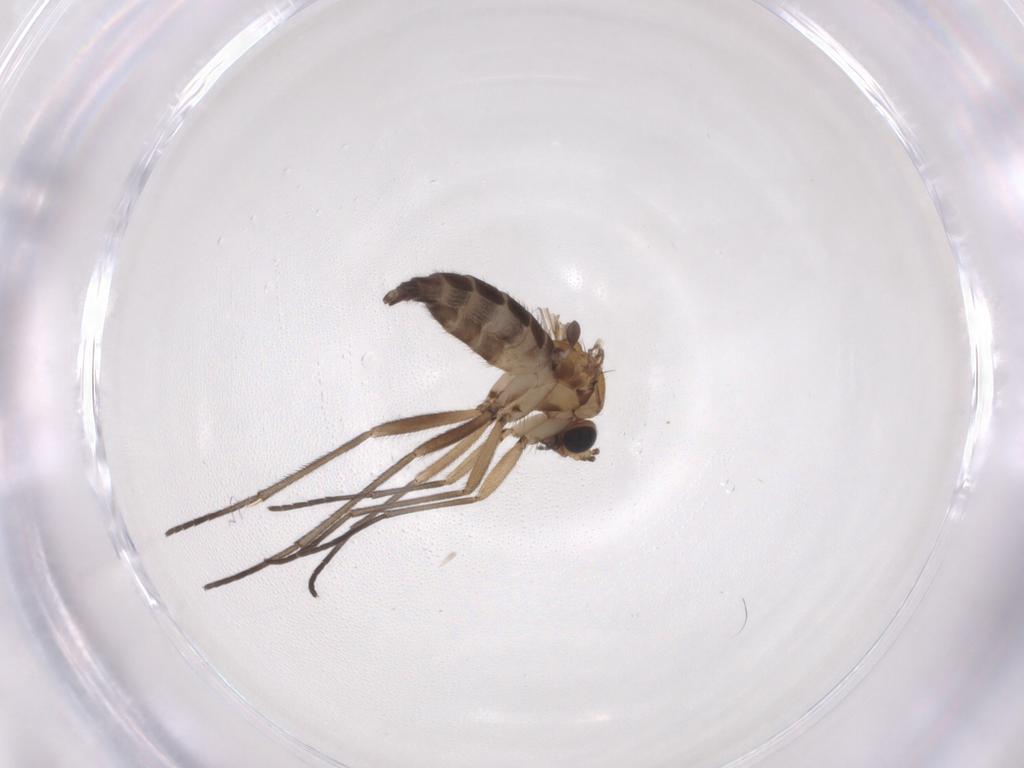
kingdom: Animalia
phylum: Arthropoda
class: Insecta
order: Diptera
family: Sciaridae
